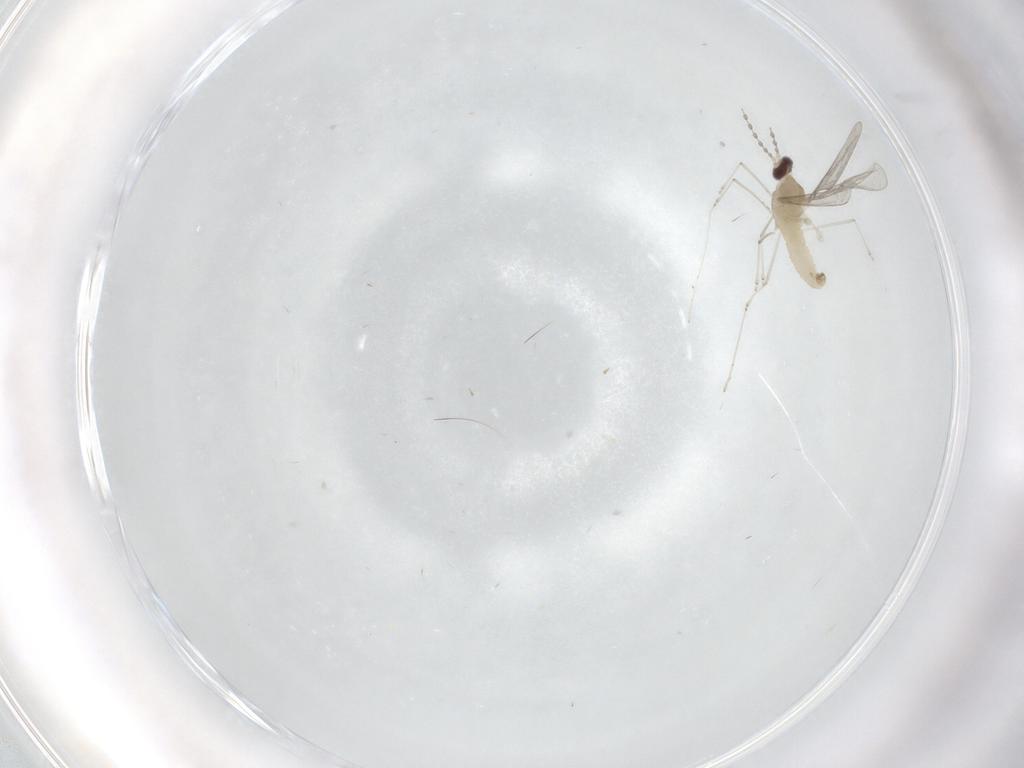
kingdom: Animalia
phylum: Arthropoda
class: Insecta
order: Diptera
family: Cecidomyiidae
